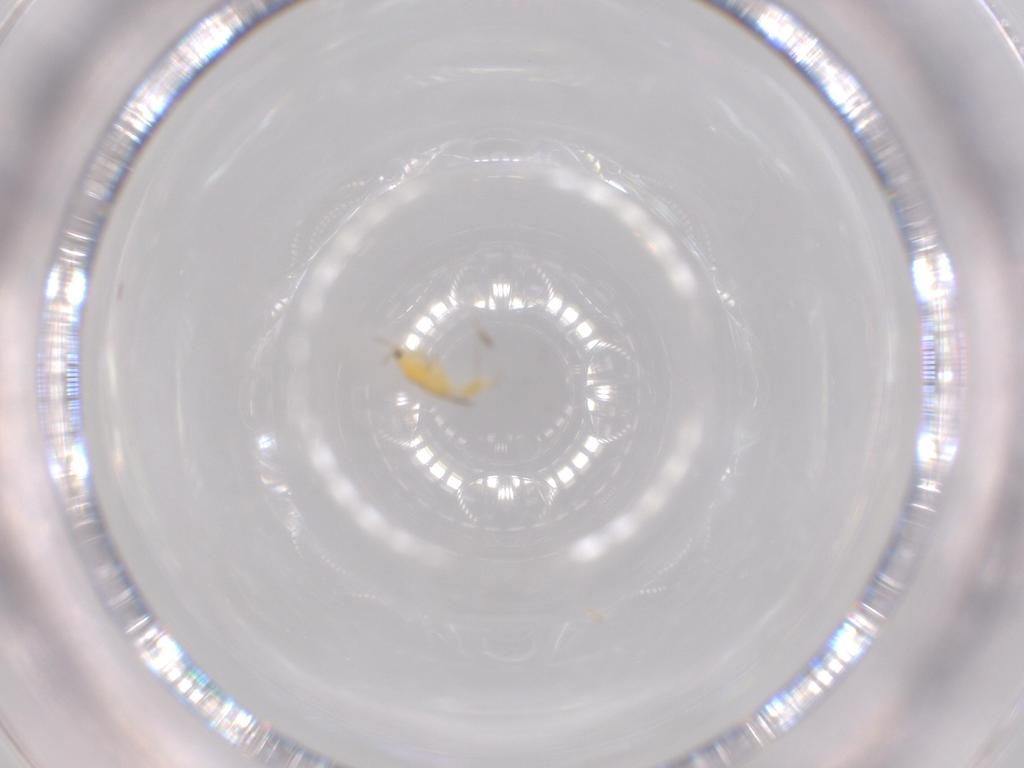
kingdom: Animalia
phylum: Arthropoda
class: Insecta
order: Thysanoptera
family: Thripidae
